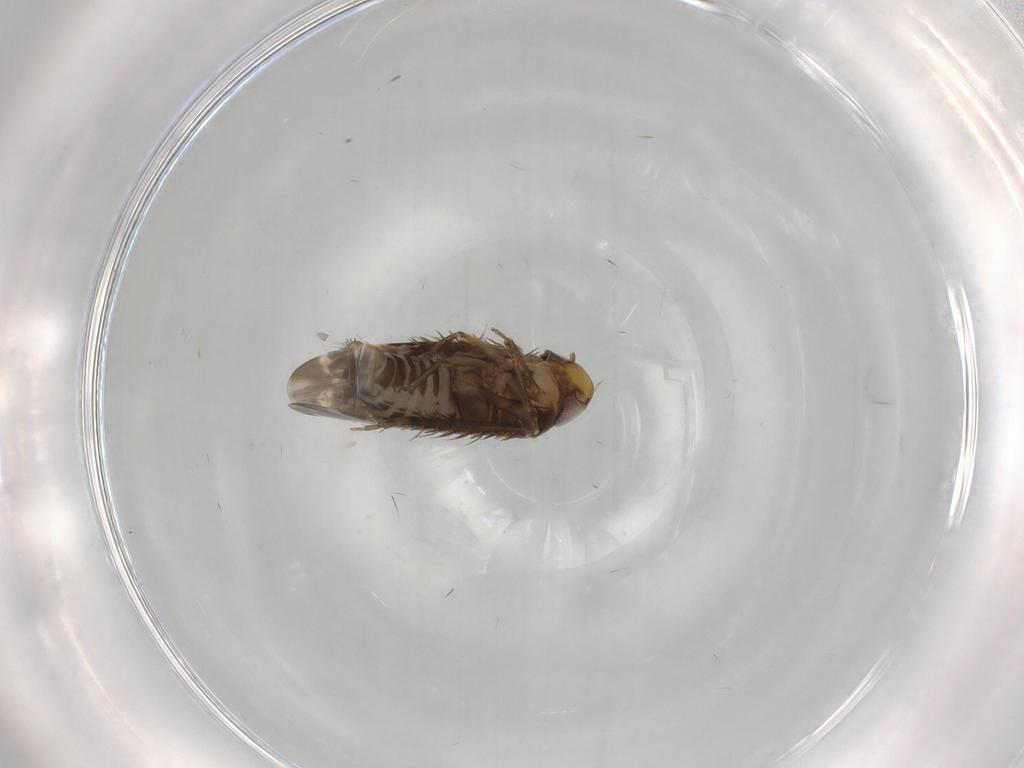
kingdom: Animalia
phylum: Arthropoda
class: Insecta
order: Hemiptera
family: Cicadellidae
